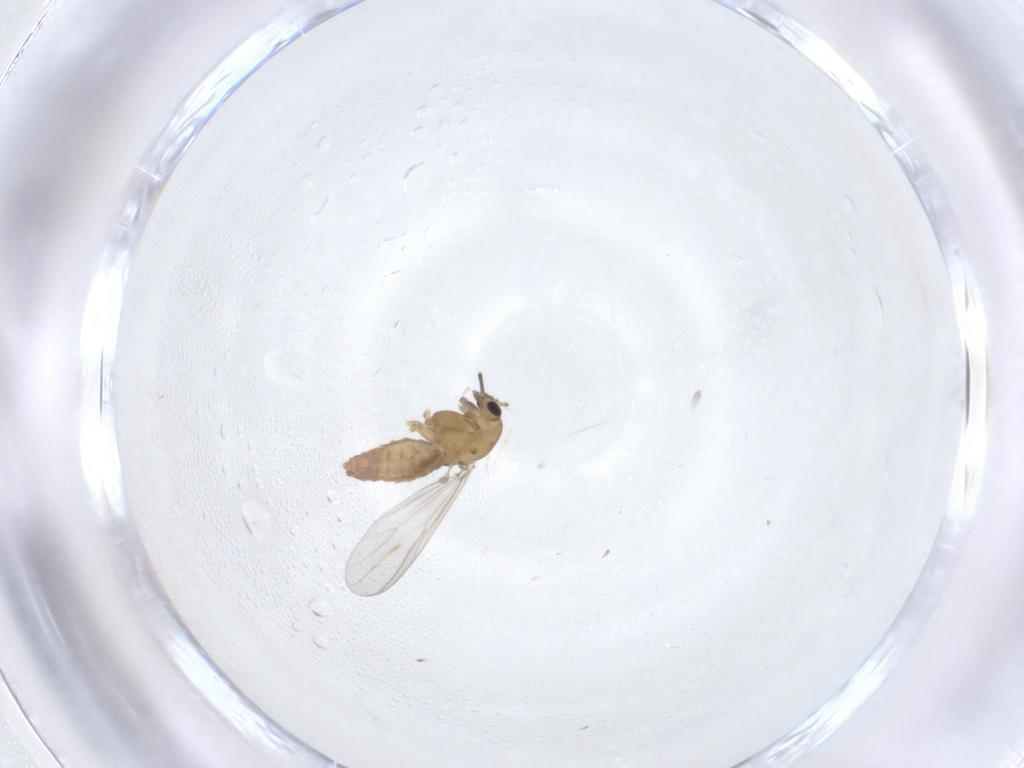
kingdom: Animalia
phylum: Arthropoda
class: Insecta
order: Diptera
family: Chironomidae
